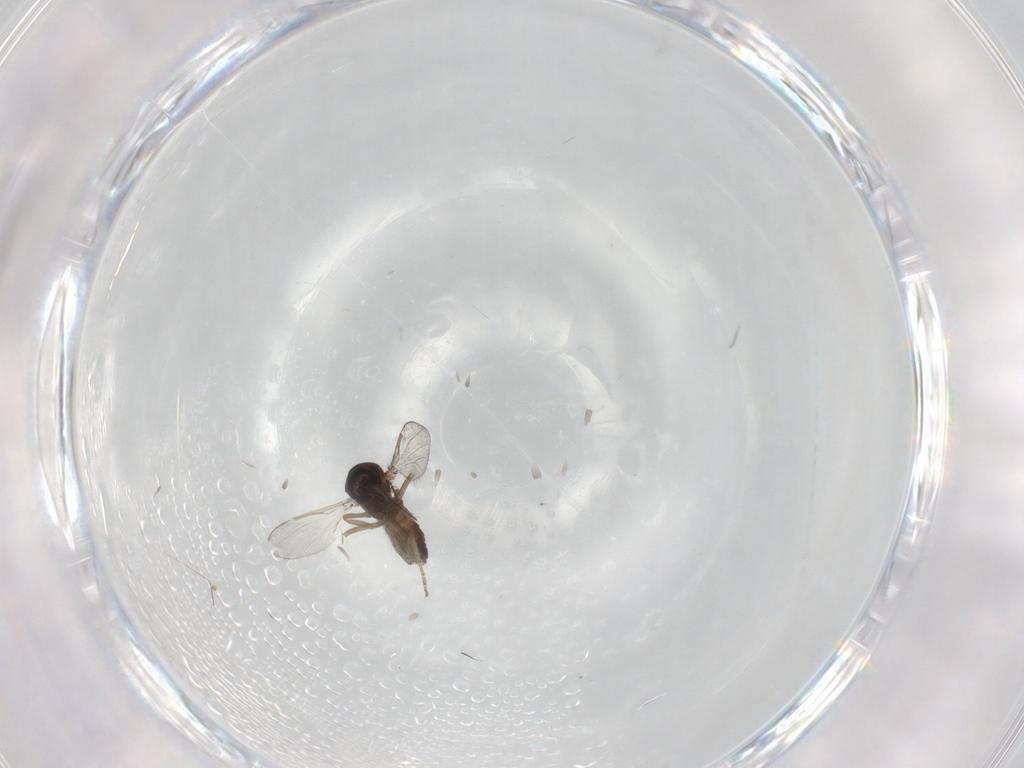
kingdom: Animalia
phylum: Arthropoda
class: Insecta
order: Diptera
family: Ceratopogonidae
